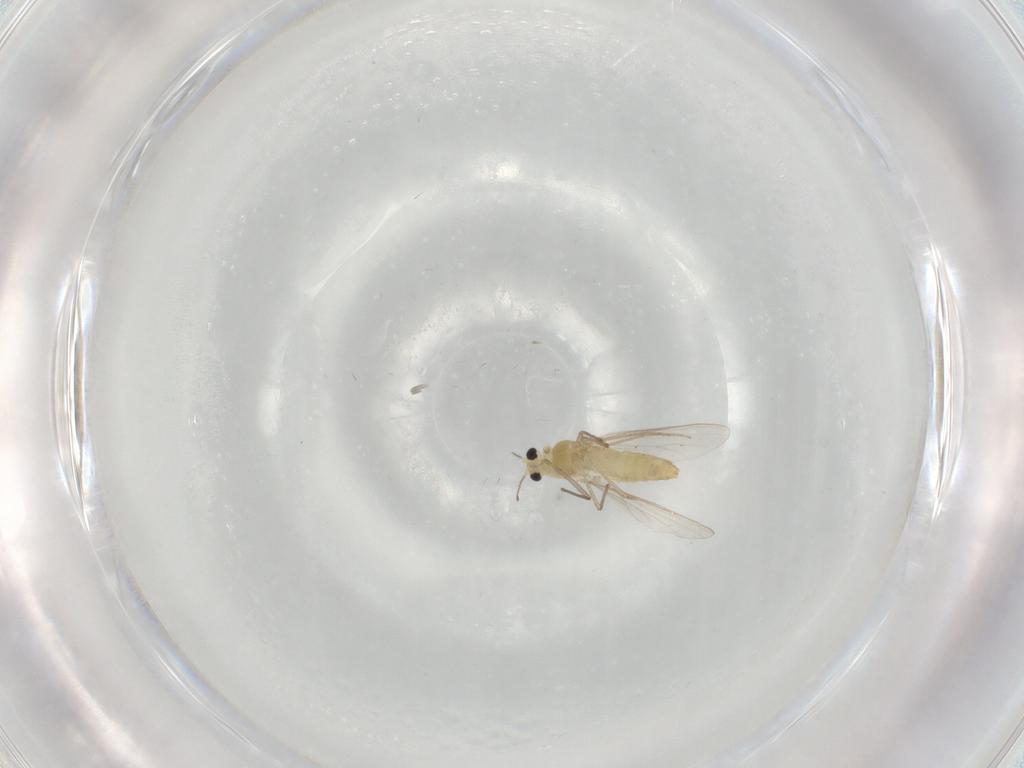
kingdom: Animalia
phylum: Arthropoda
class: Insecta
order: Diptera
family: Chironomidae
